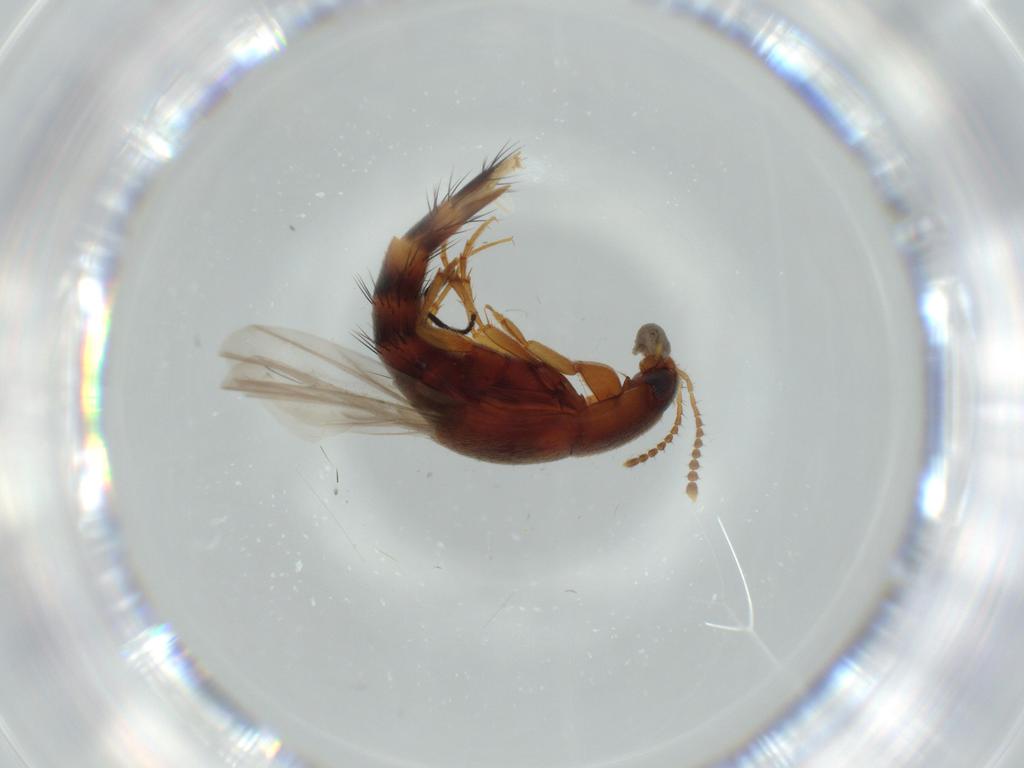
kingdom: Animalia
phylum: Arthropoda
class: Insecta
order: Coleoptera
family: Staphylinidae
